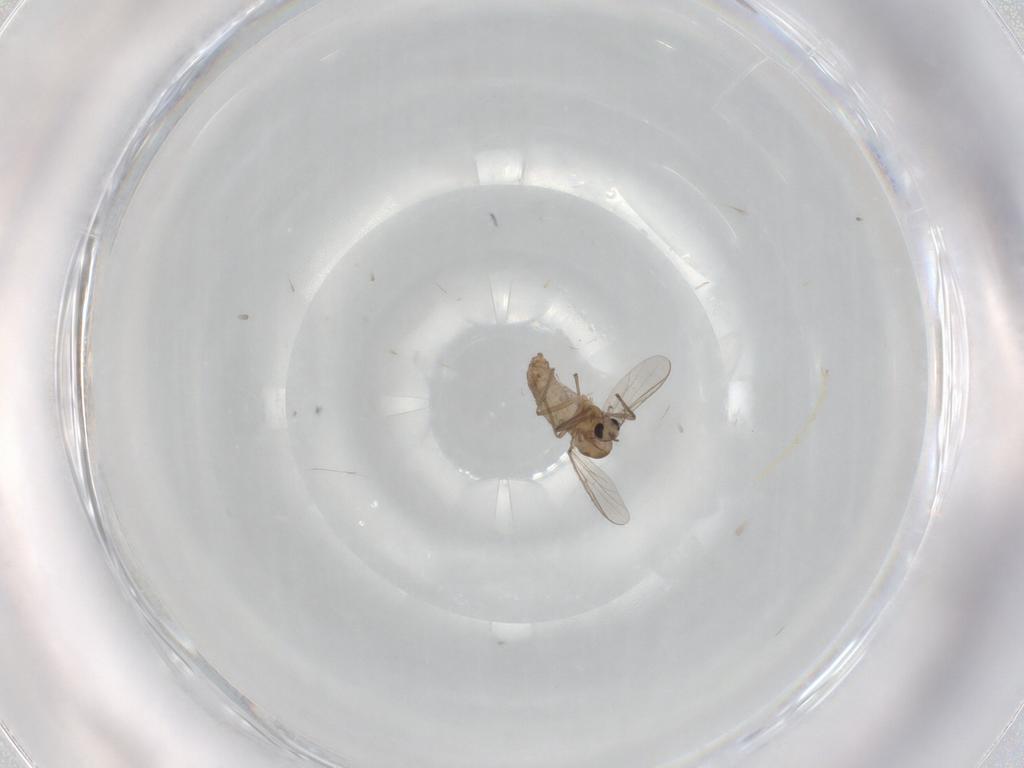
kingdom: Animalia
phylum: Arthropoda
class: Insecta
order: Diptera
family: Chironomidae
